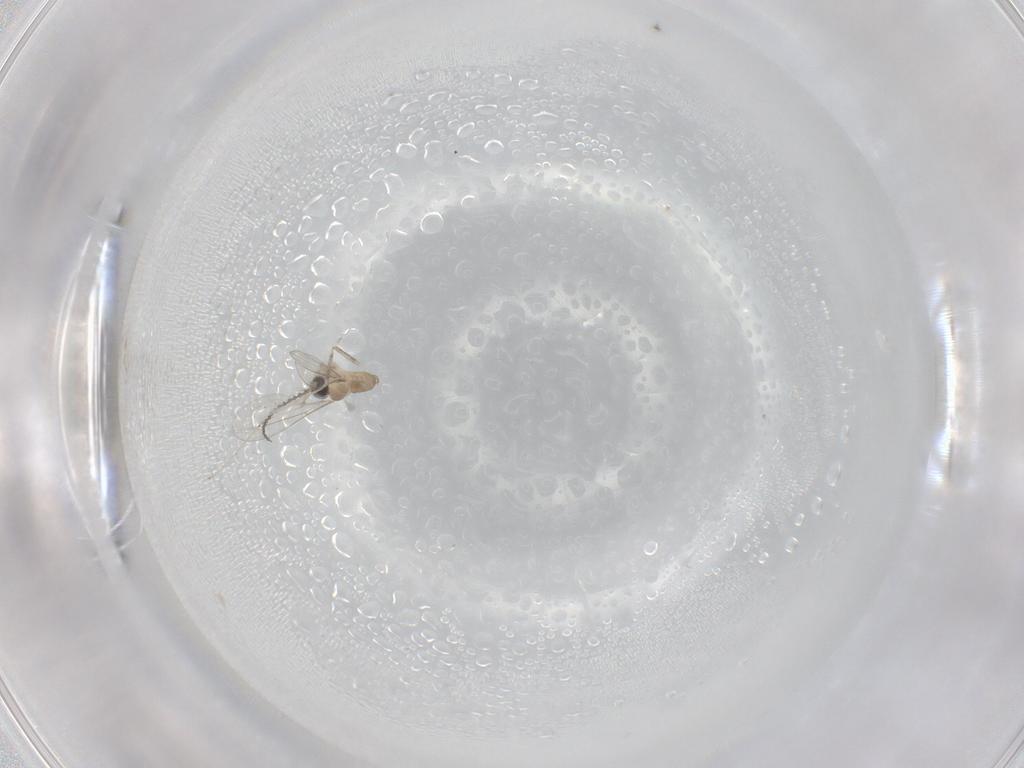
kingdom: Animalia
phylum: Arthropoda
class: Insecta
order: Diptera
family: Cecidomyiidae
